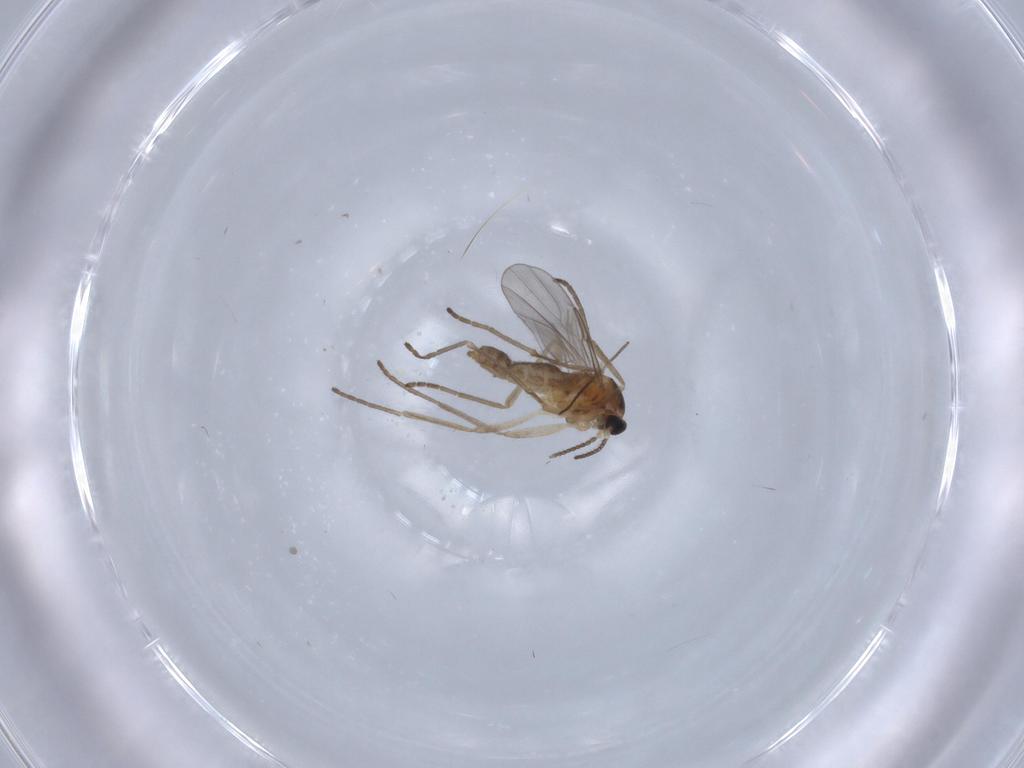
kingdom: Animalia
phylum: Arthropoda
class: Insecta
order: Diptera
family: Cecidomyiidae
